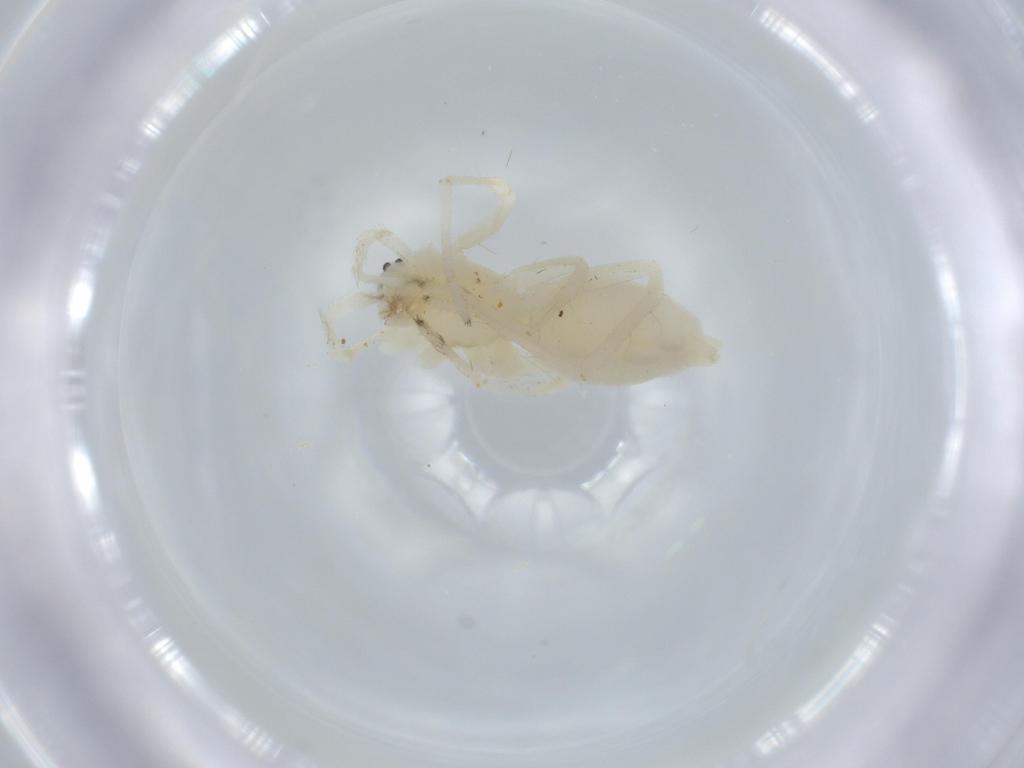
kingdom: Animalia
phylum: Arthropoda
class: Arachnida
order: Araneae
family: Anyphaenidae
